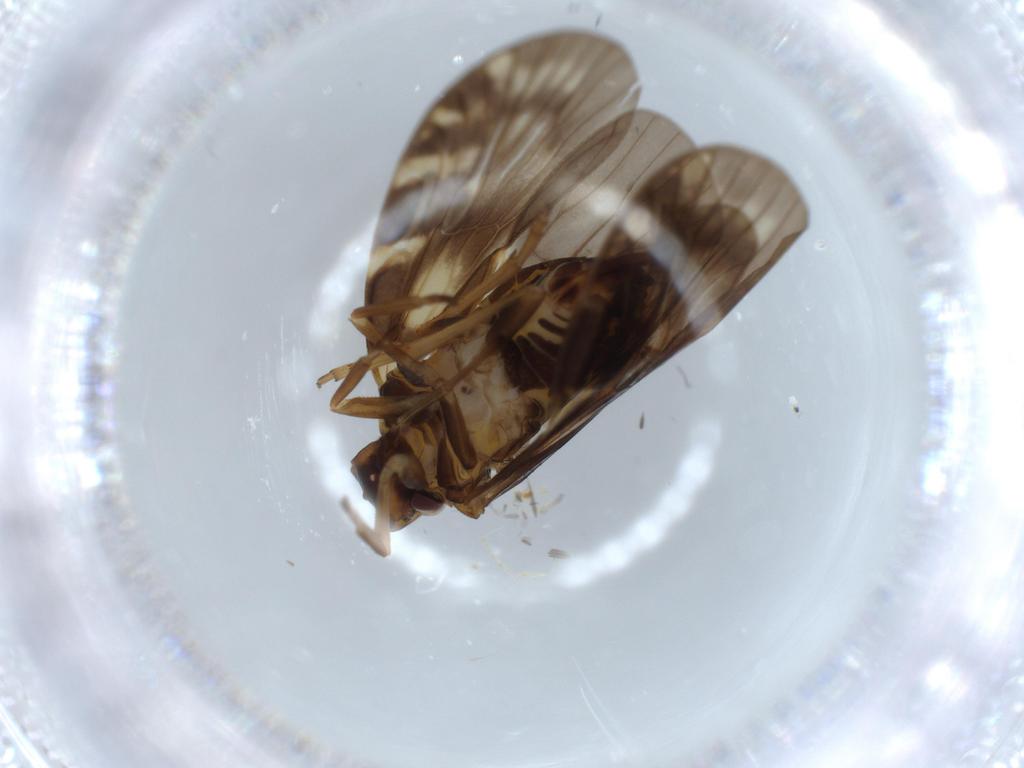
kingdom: Animalia
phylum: Arthropoda
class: Insecta
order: Hemiptera
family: Cixiidae
